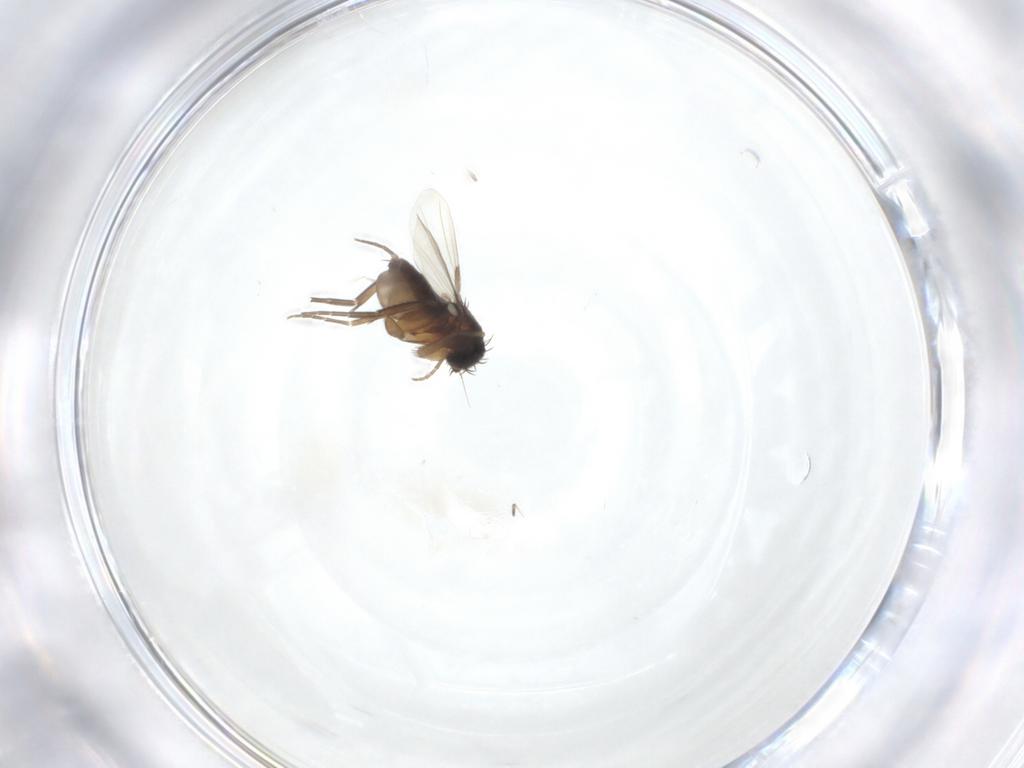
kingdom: Animalia
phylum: Arthropoda
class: Insecta
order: Diptera
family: Phoridae
